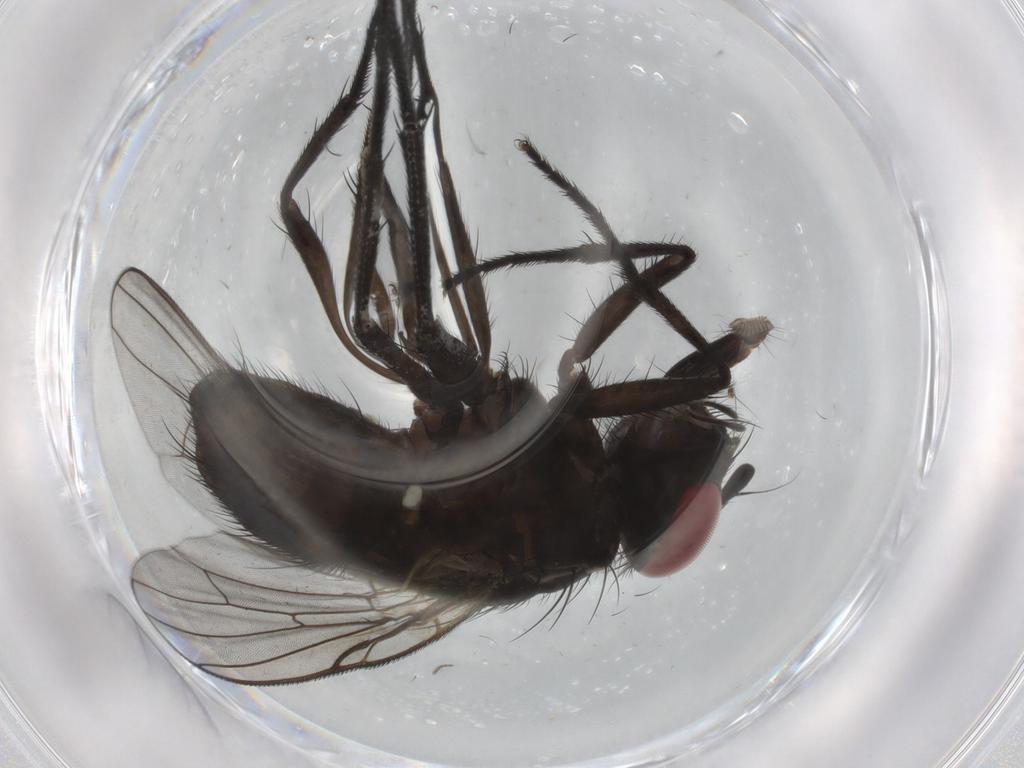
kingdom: Animalia
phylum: Arthropoda
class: Insecta
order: Diptera
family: Muscidae
